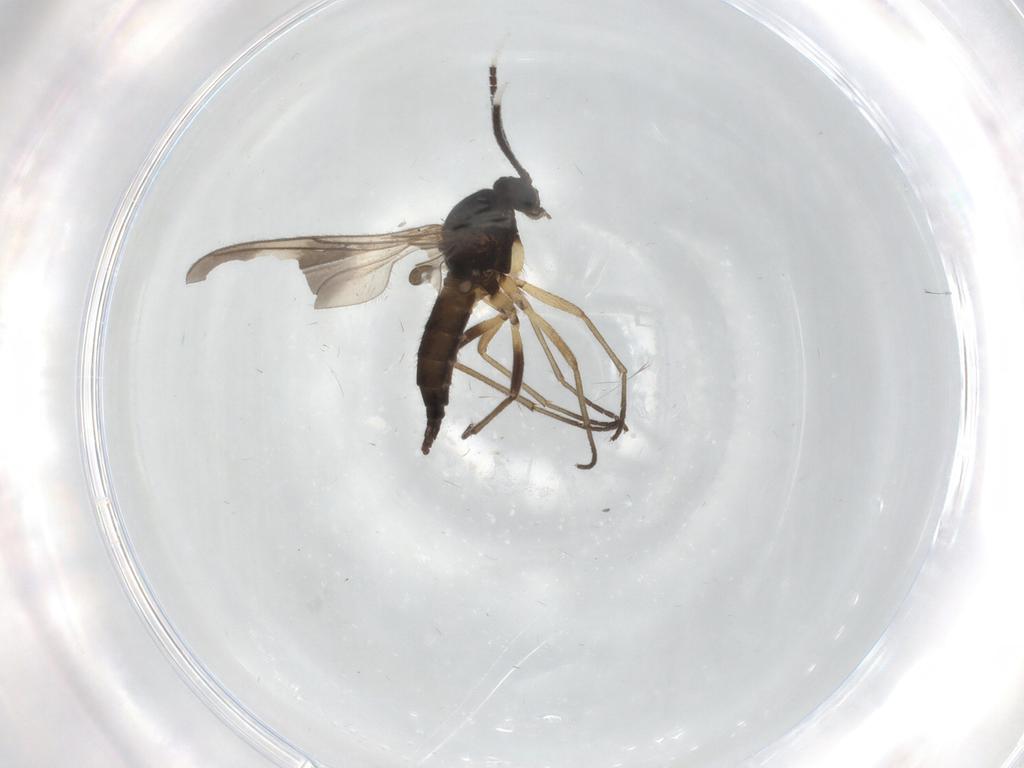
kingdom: Animalia
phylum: Arthropoda
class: Insecta
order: Diptera
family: Sciaridae
